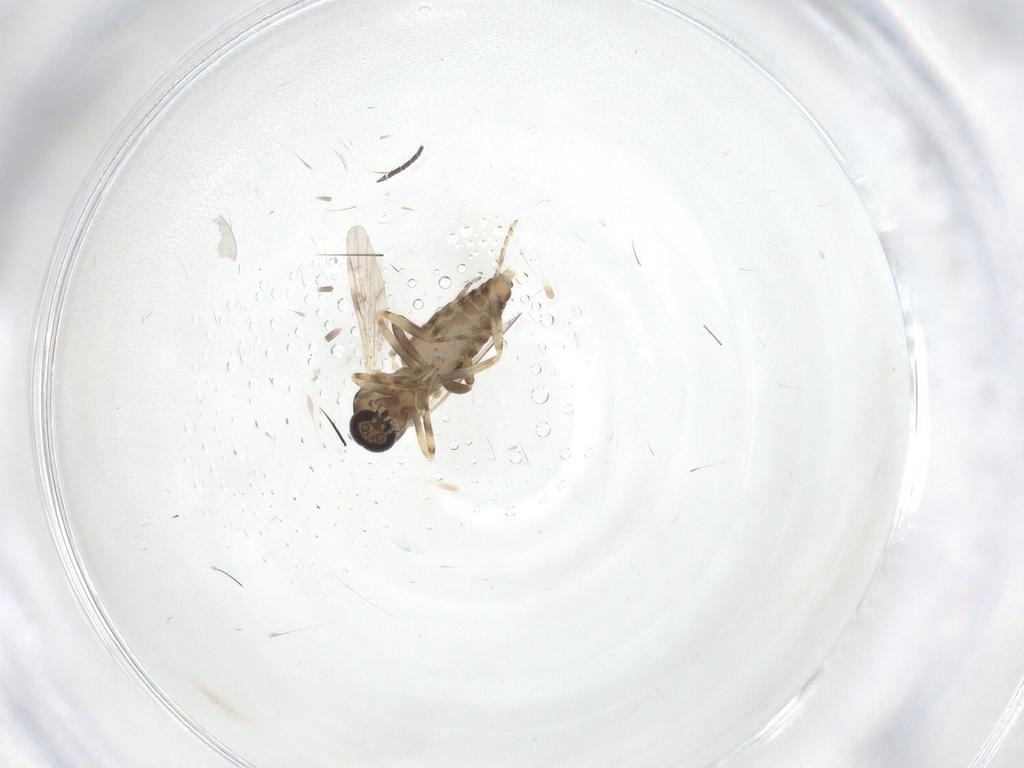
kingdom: Animalia
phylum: Arthropoda
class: Insecta
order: Diptera
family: Ceratopogonidae
